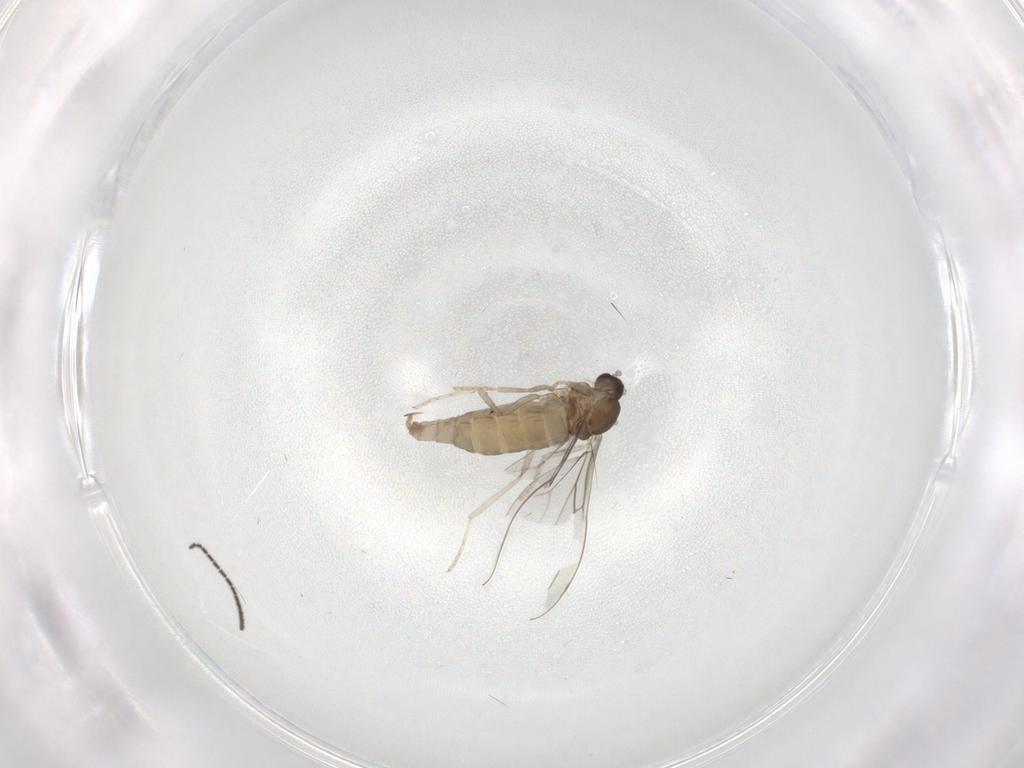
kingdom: Animalia
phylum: Arthropoda
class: Insecta
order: Diptera
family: Cecidomyiidae
